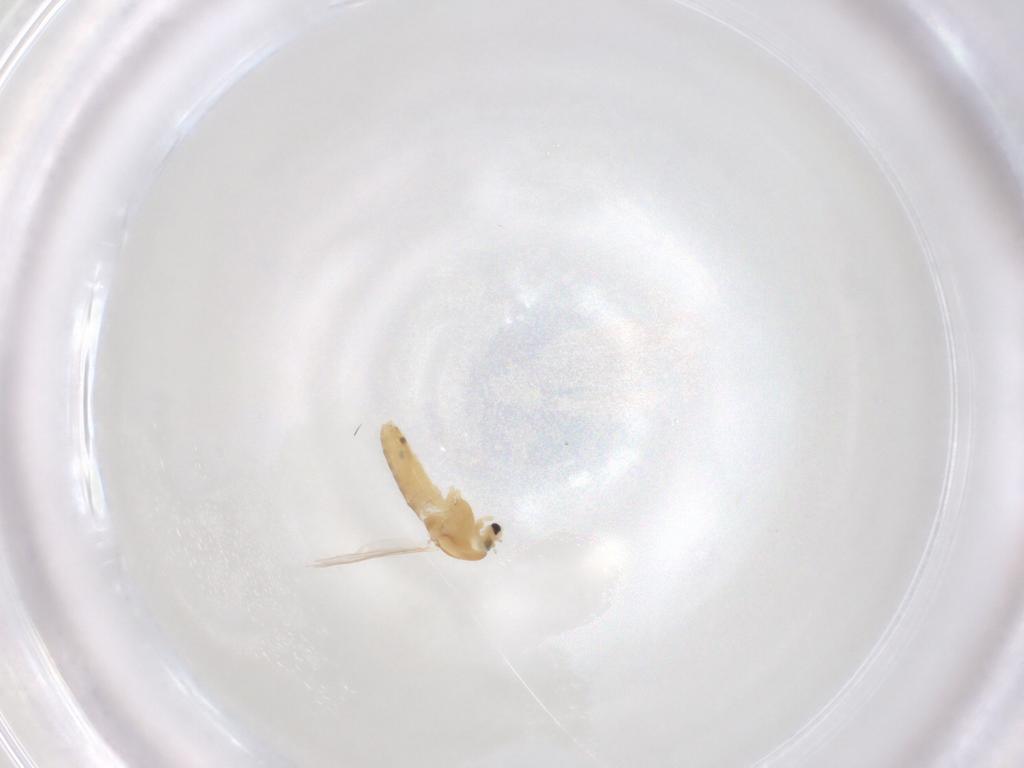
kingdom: Animalia
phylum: Arthropoda
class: Insecta
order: Diptera
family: Chironomidae
